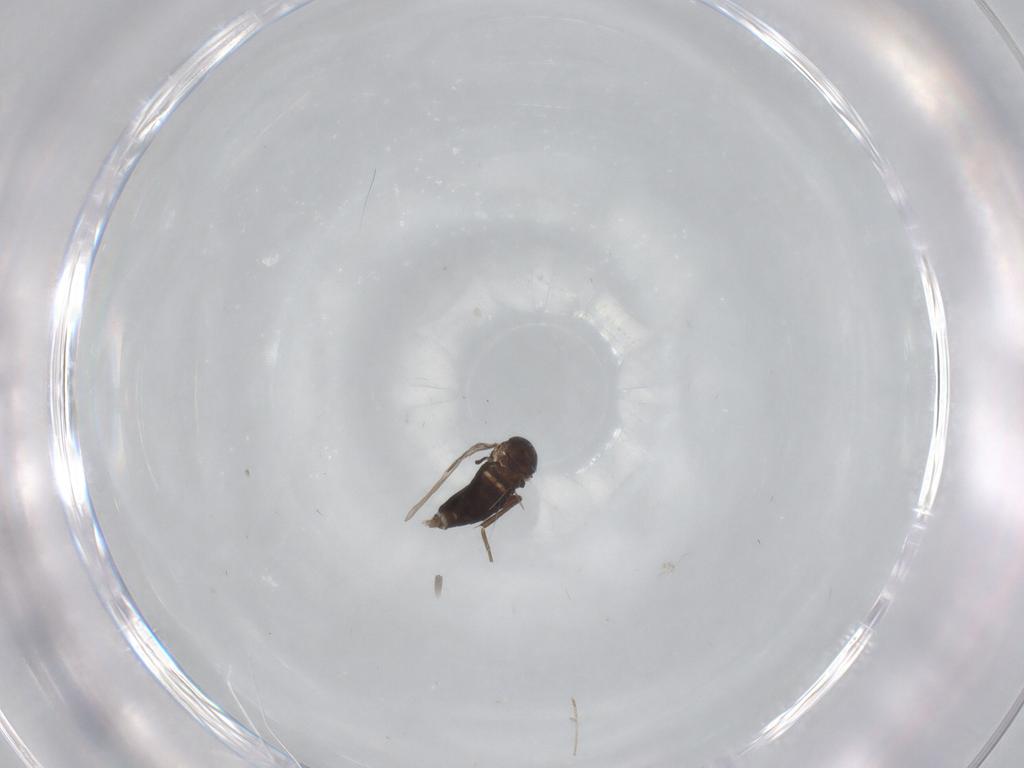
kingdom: Animalia
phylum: Arthropoda
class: Insecta
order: Diptera
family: Phoridae
